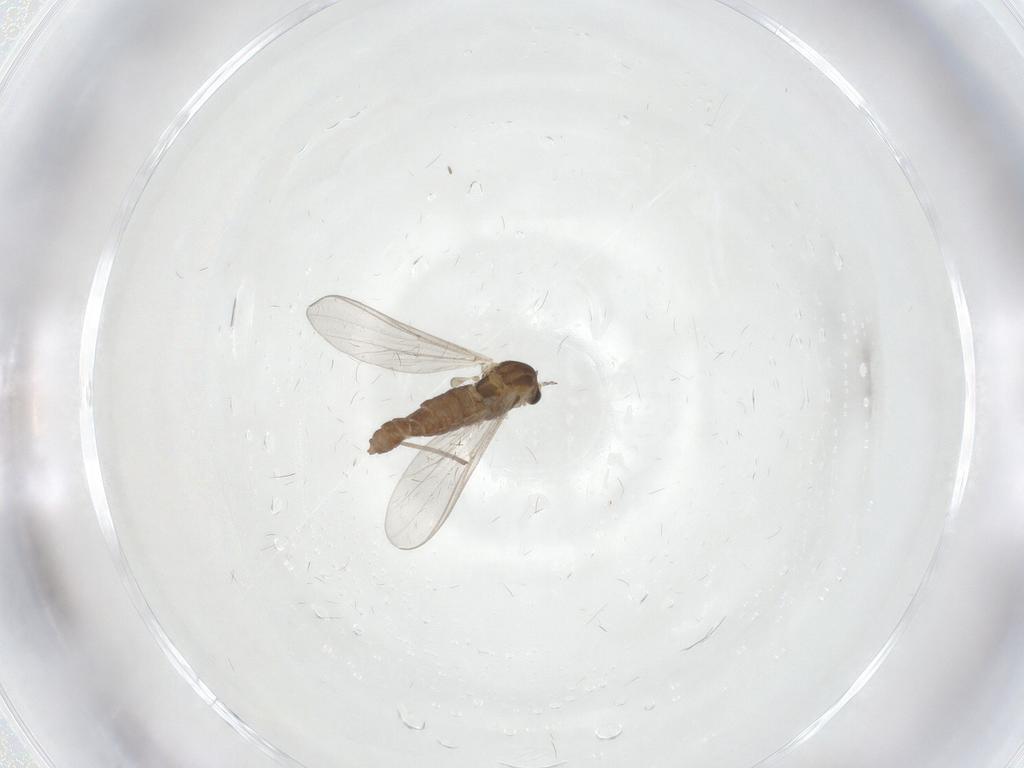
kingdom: Animalia
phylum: Arthropoda
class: Insecta
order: Diptera
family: Chironomidae
